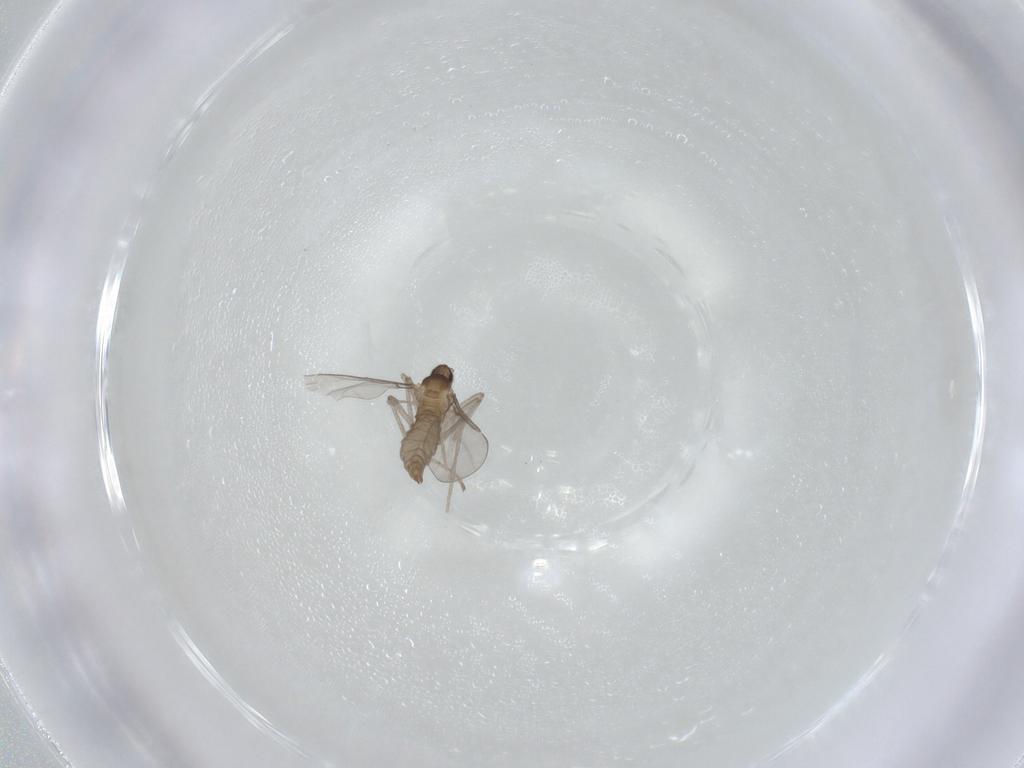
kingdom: Animalia
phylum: Arthropoda
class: Insecta
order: Diptera
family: Cecidomyiidae
